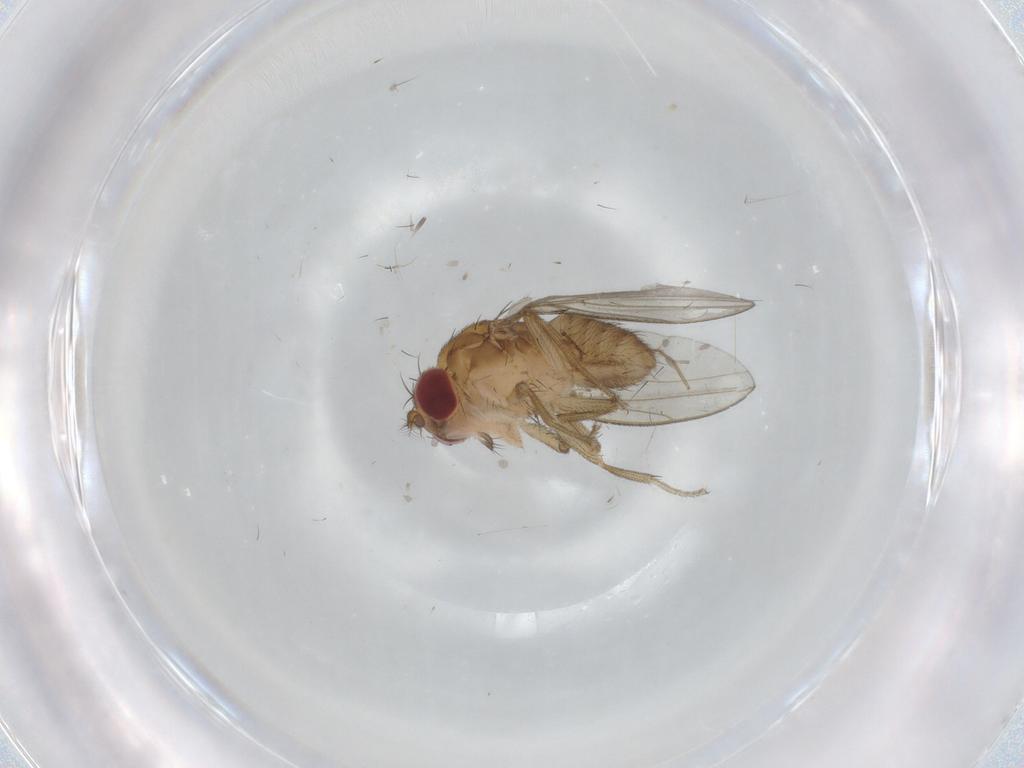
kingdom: Animalia
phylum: Arthropoda
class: Insecta
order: Diptera
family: Drosophilidae
